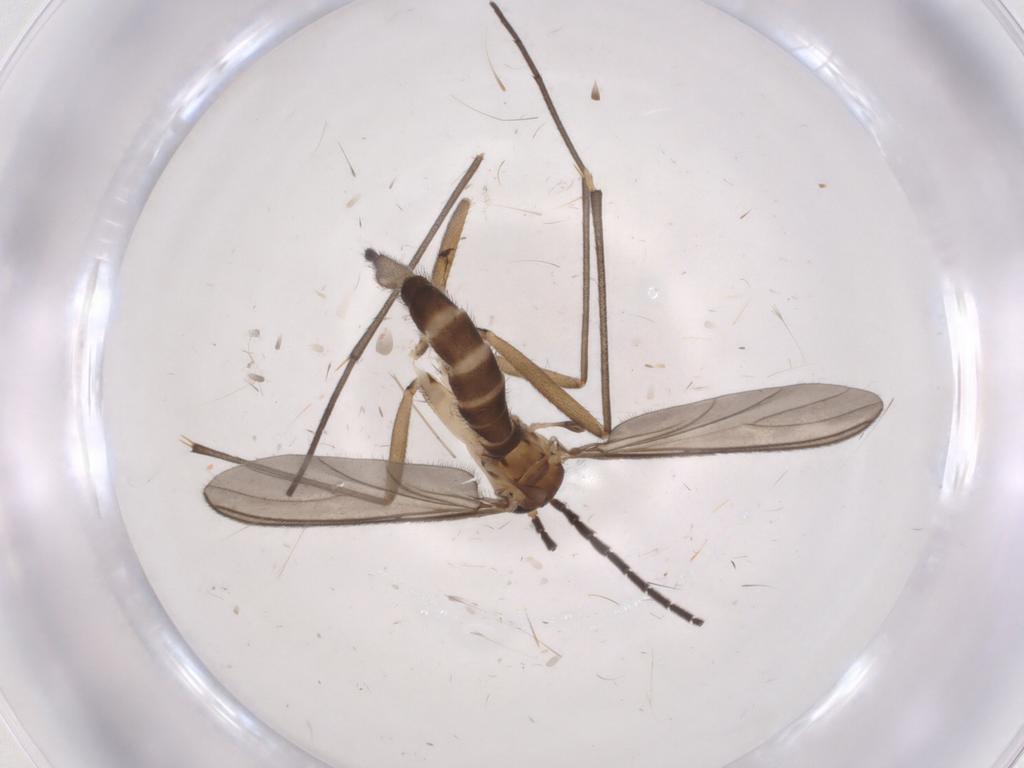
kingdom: Animalia
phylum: Arthropoda
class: Insecta
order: Diptera
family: Sciaridae
